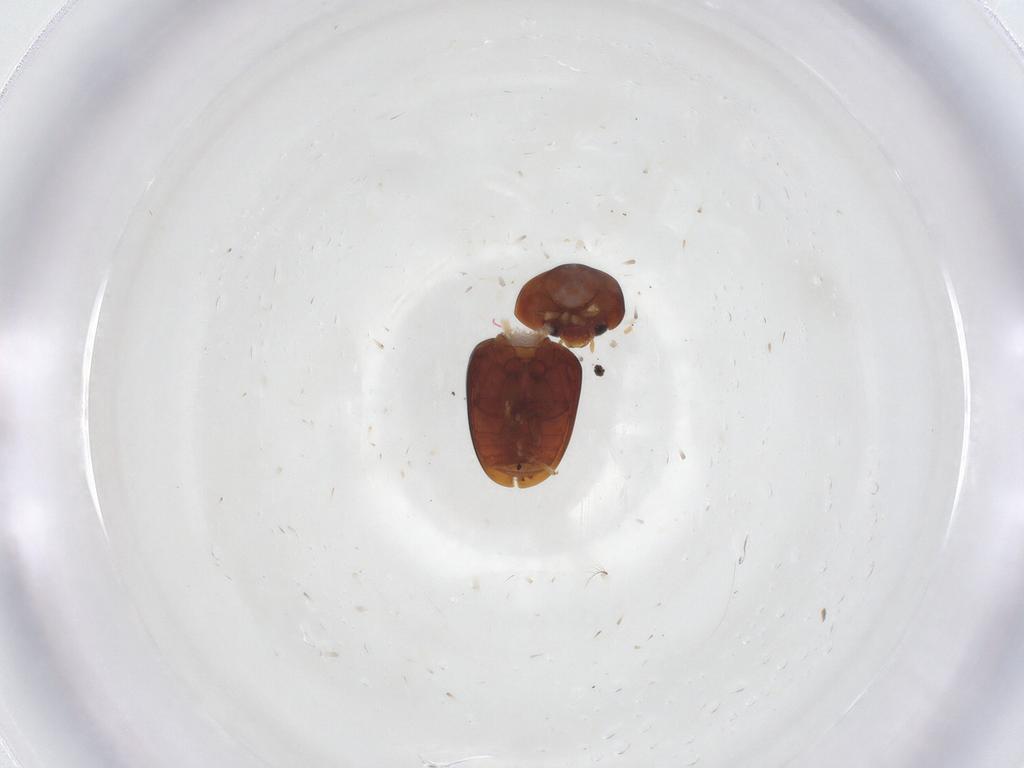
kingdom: Animalia
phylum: Arthropoda
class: Insecta
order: Coleoptera
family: Phalacridae
